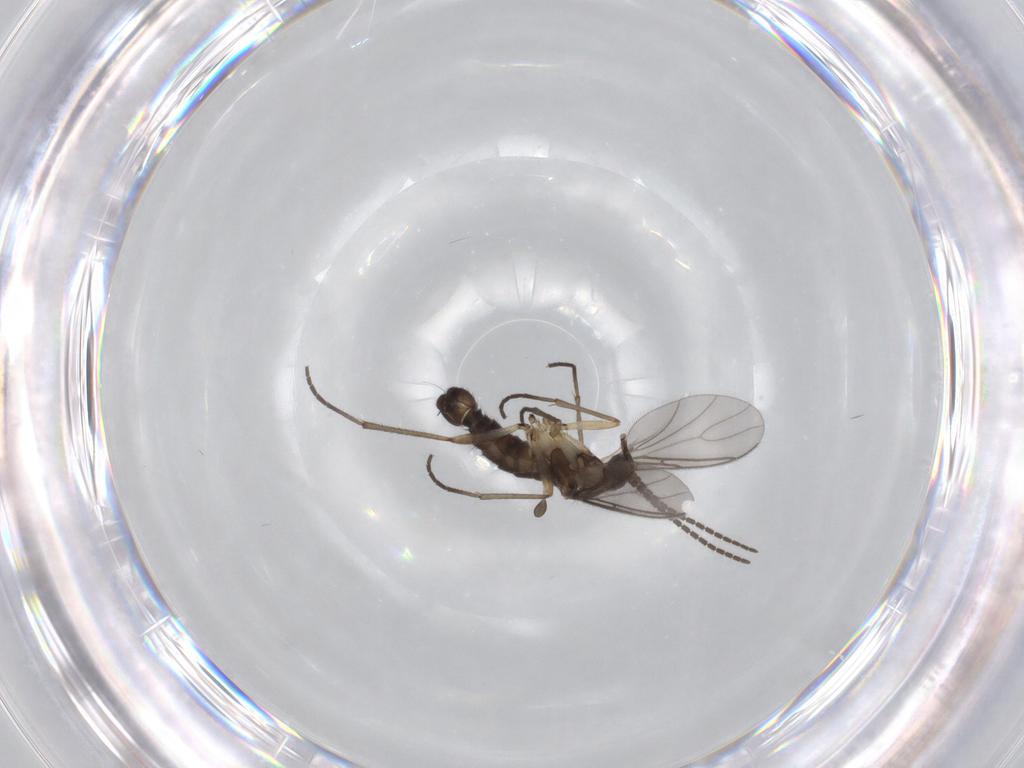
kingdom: Animalia
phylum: Arthropoda
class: Insecta
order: Diptera
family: Sciaridae
